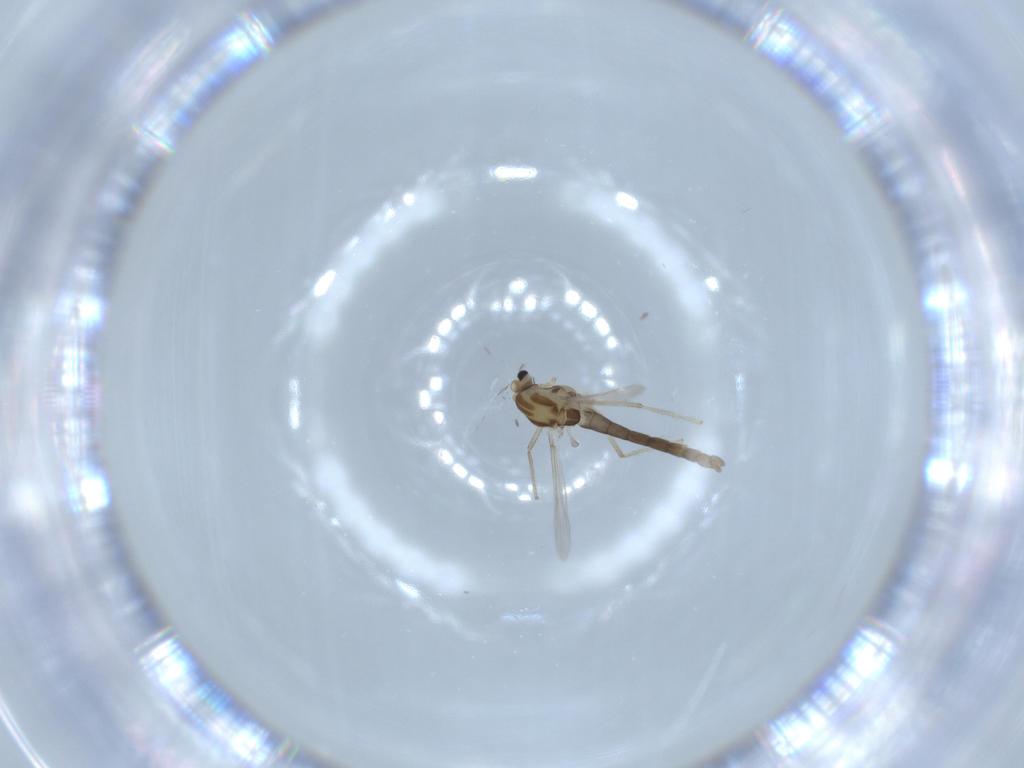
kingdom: Animalia
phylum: Arthropoda
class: Insecta
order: Diptera
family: Chironomidae
